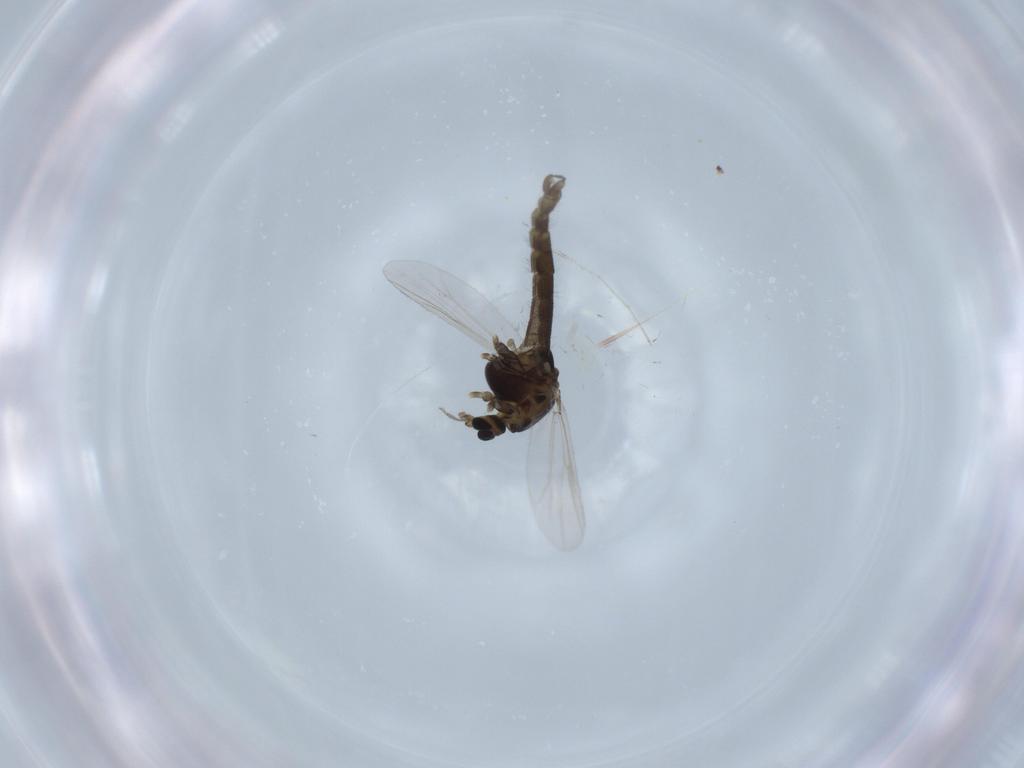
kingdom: Animalia
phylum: Arthropoda
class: Insecta
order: Diptera
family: Chironomidae
